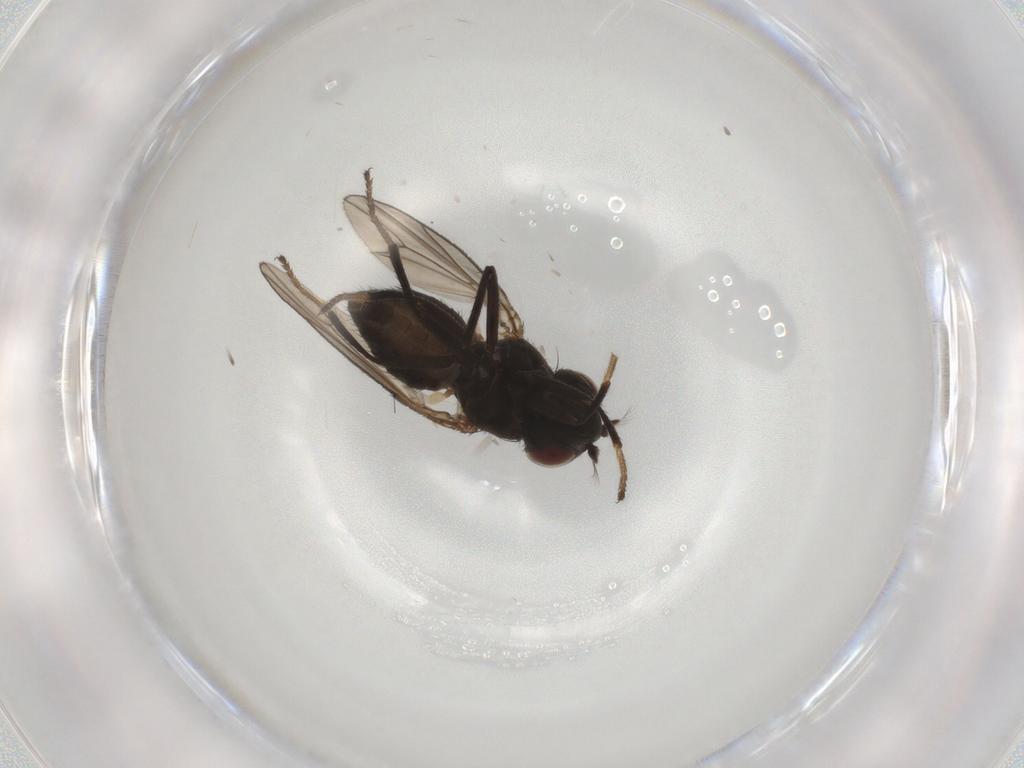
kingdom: Animalia
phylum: Arthropoda
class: Insecta
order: Diptera
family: Ephydridae
